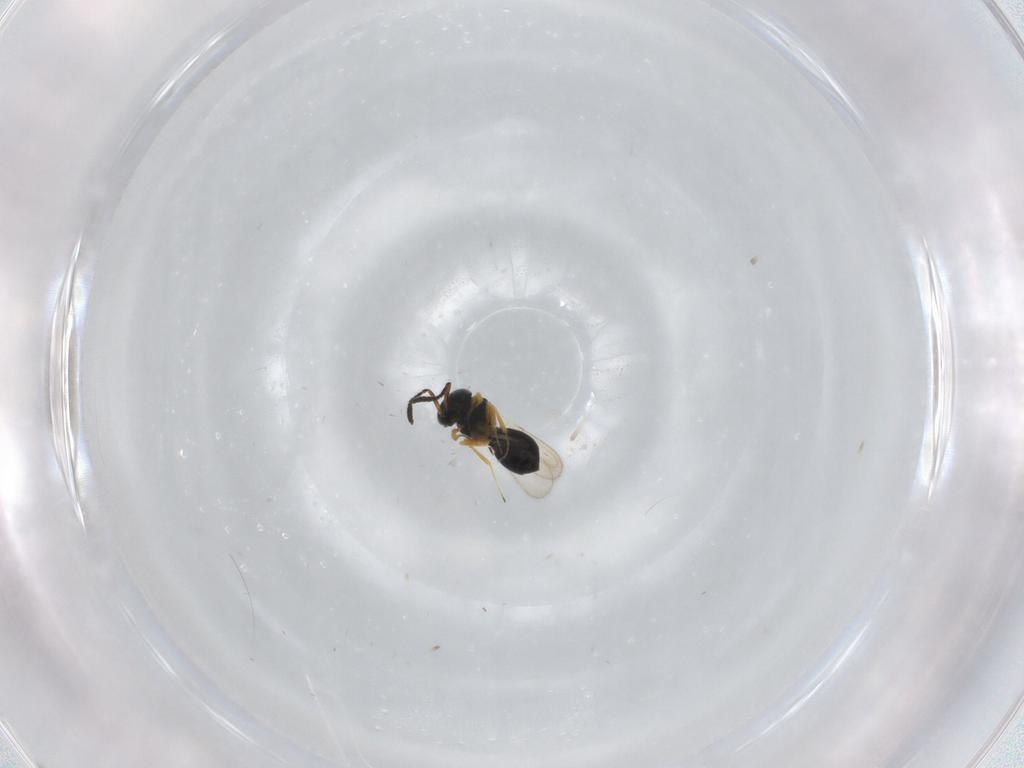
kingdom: Animalia
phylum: Arthropoda
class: Insecta
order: Hymenoptera
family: Scelionidae
